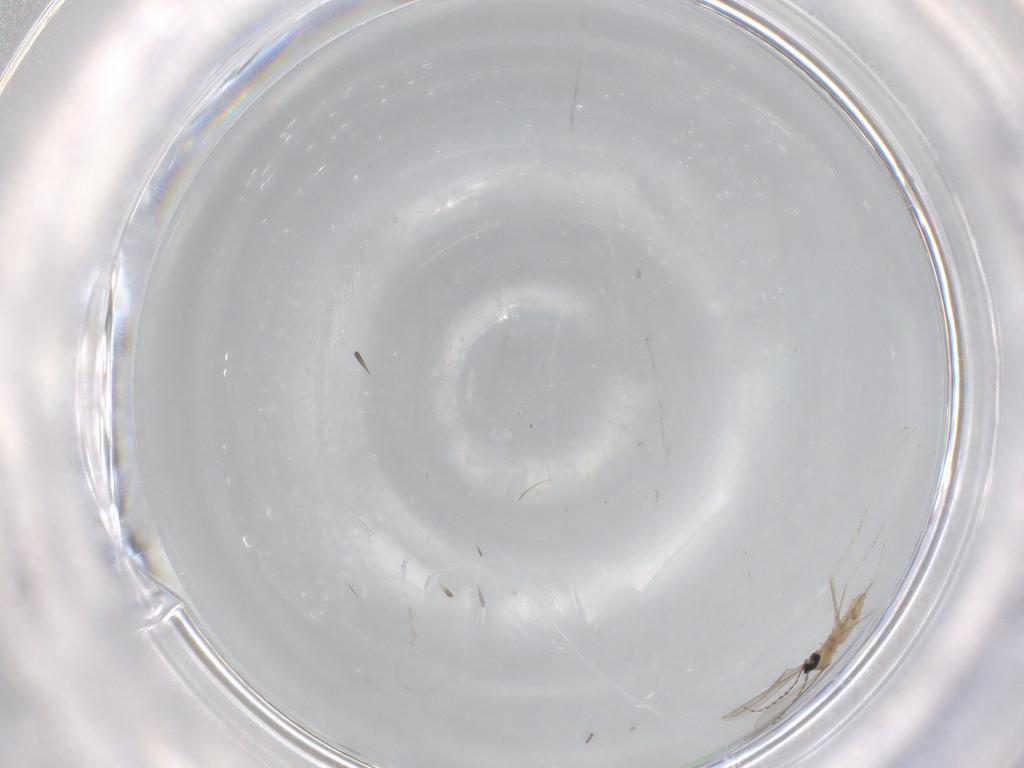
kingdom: Animalia
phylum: Arthropoda
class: Insecta
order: Diptera
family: Cecidomyiidae
